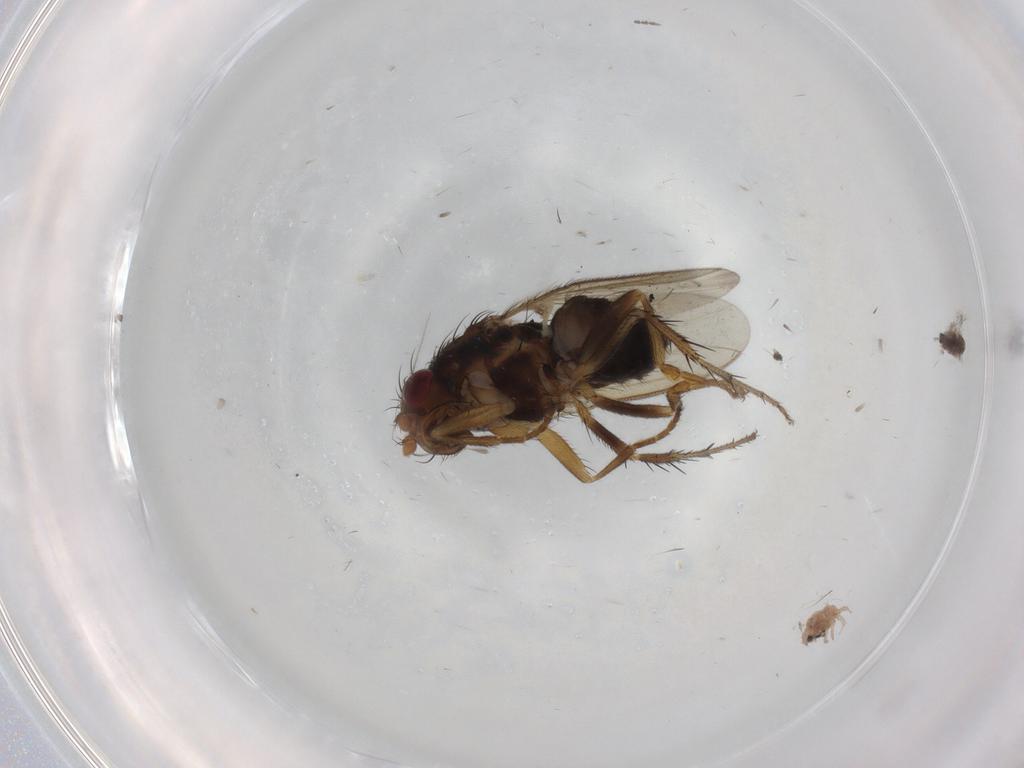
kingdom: Animalia
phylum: Arthropoda
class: Insecta
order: Diptera
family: Sphaeroceridae
